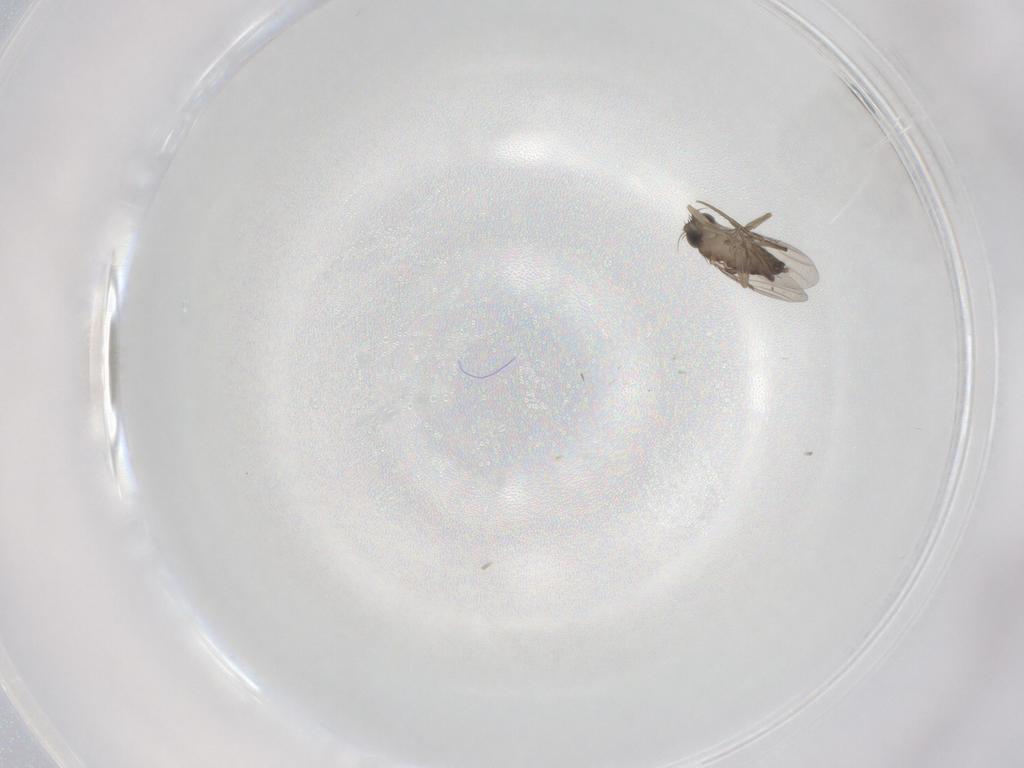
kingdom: Animalia
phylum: Arthropoda
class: Insecta
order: Diptera
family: Phoridae
